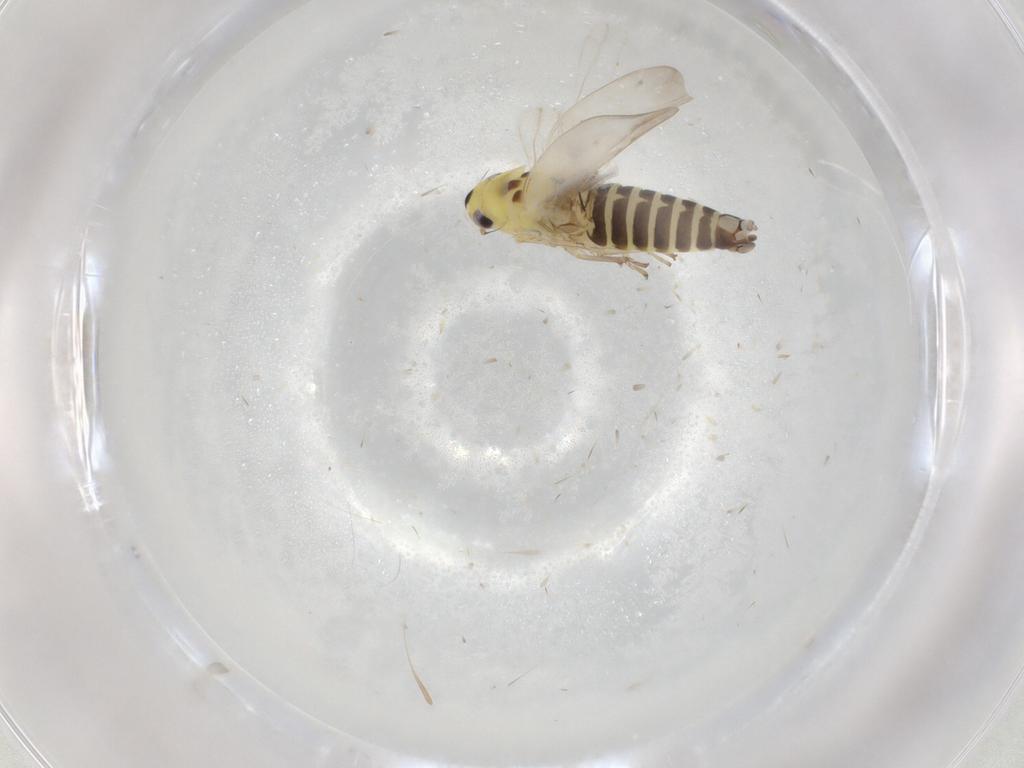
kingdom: Animalia
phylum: Arthropoda
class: Insecta
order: Hemiptera
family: Cicadellidae
